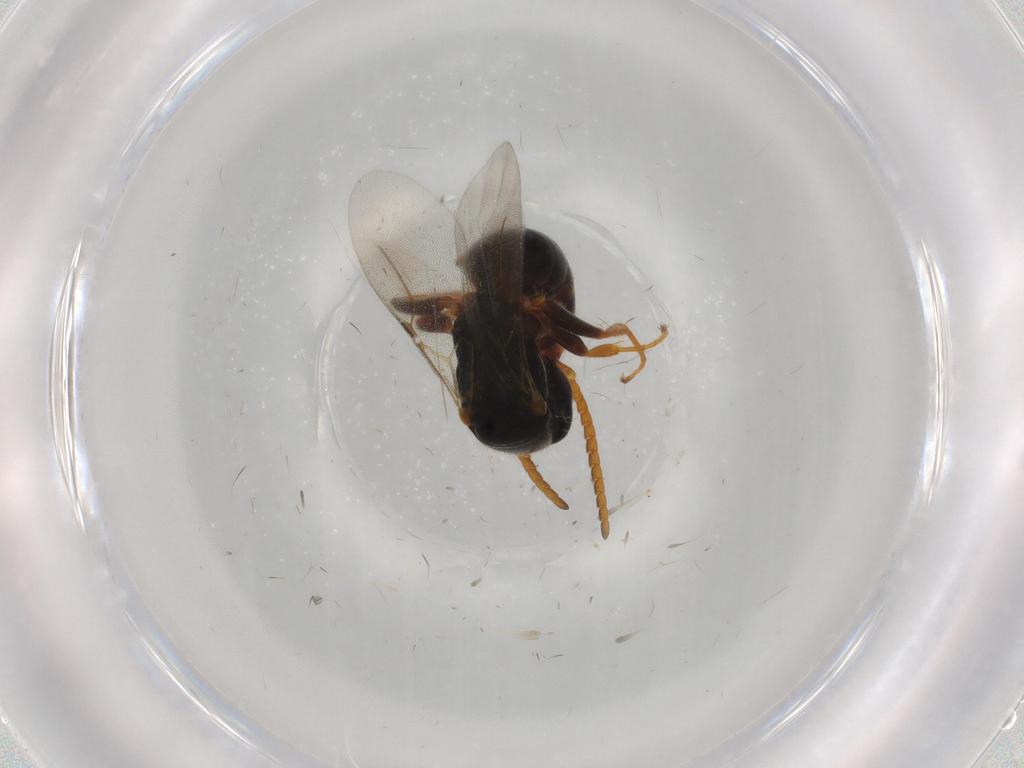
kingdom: Animalia
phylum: Arthropoda
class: Insecta
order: Hymenoptera
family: Bethylidae
